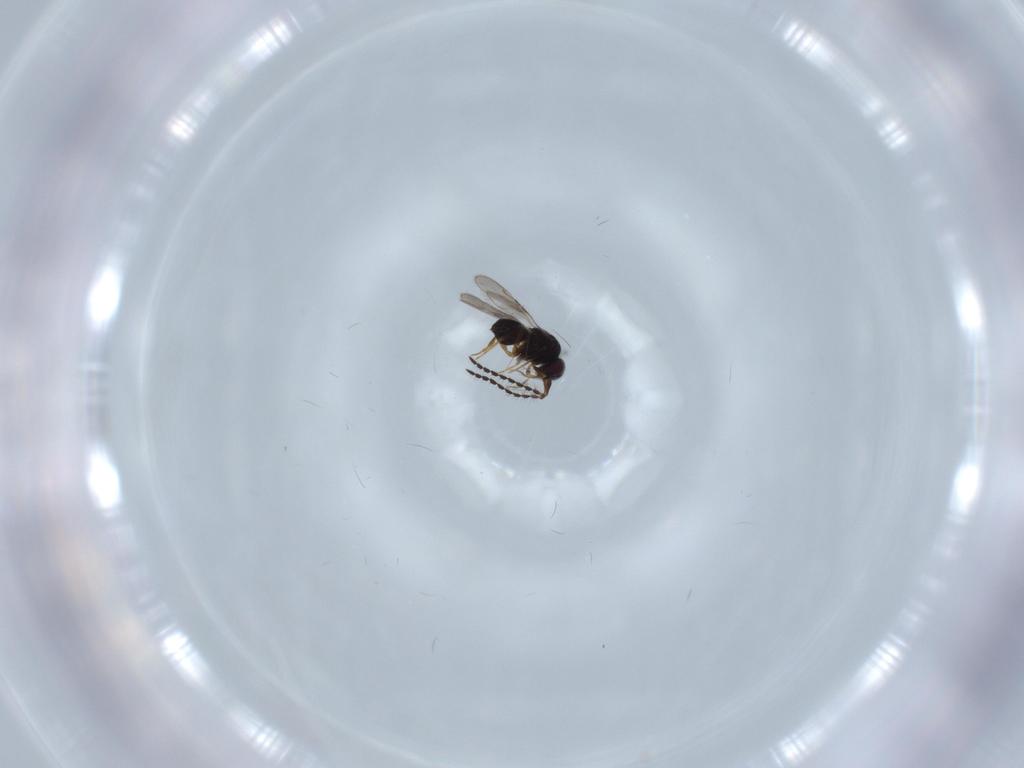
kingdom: Animalia
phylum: Arthropoda
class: Insecta
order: Hymenoptera
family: Ceraphronidae
